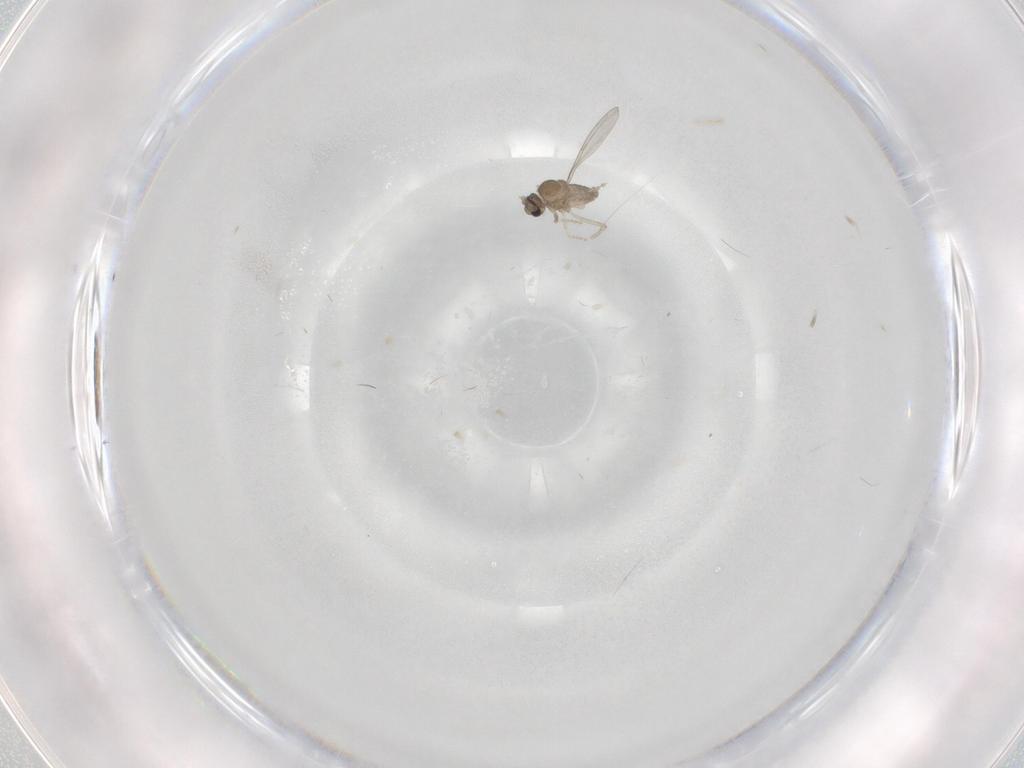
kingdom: Animalia
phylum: Arthropoda
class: Insecta
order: Diptera
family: Cecidomyiidae
